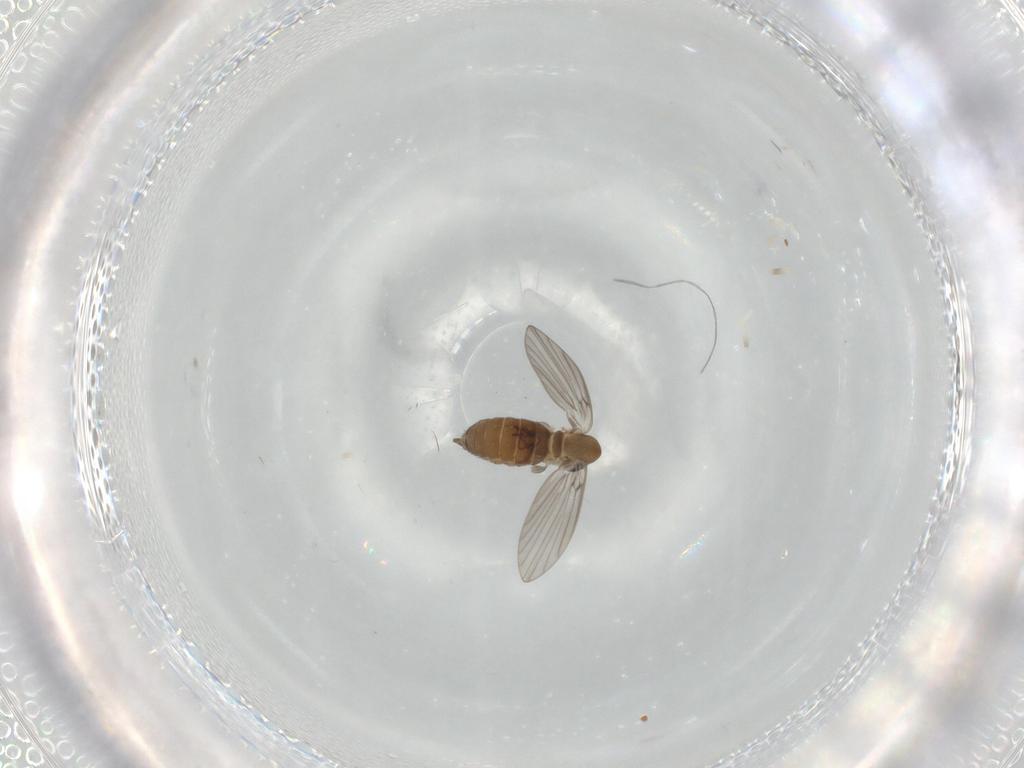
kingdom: Animalia
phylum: Arthropoda
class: Insecta
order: Diptera
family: Psychodidae
